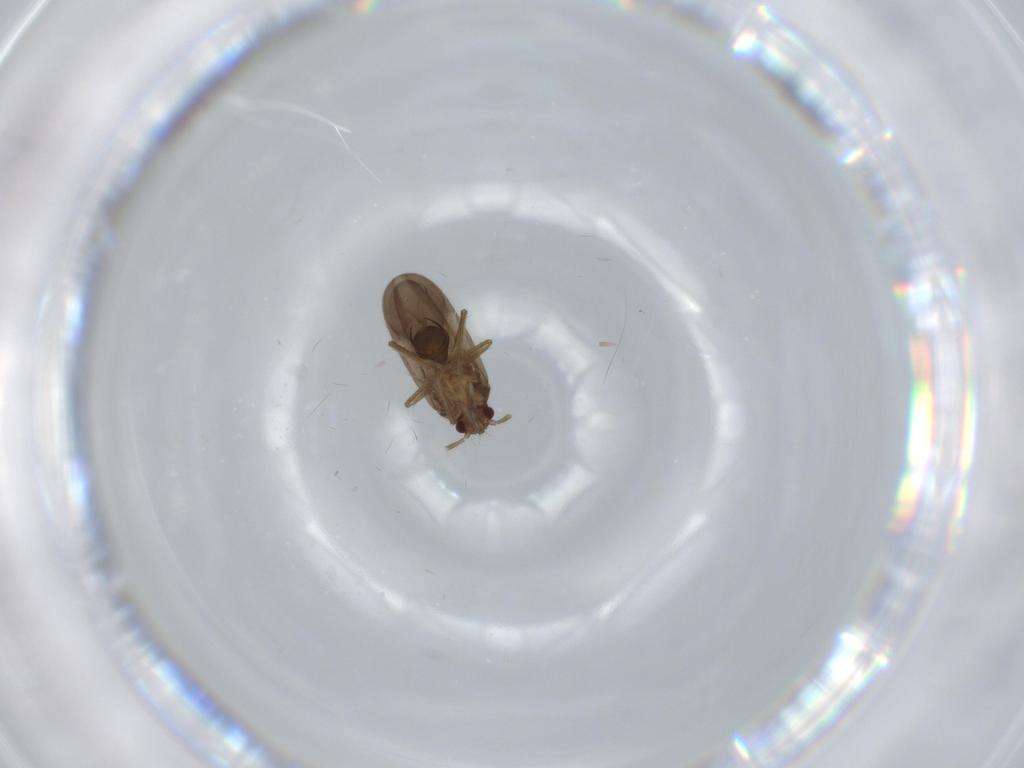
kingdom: Animalia
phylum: Arthropoda
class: Insecta
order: Hemiptera
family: Ceratocombidae
